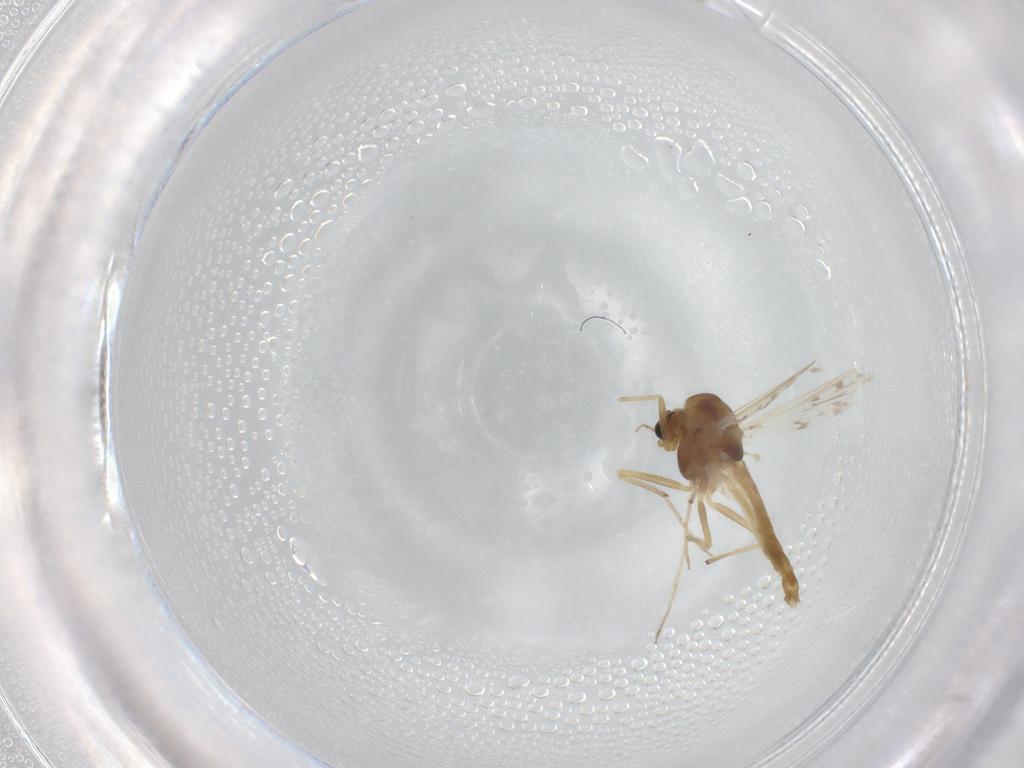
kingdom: Animalia
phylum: Arthropoda
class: Insecta
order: Diptera
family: Chironomidae
